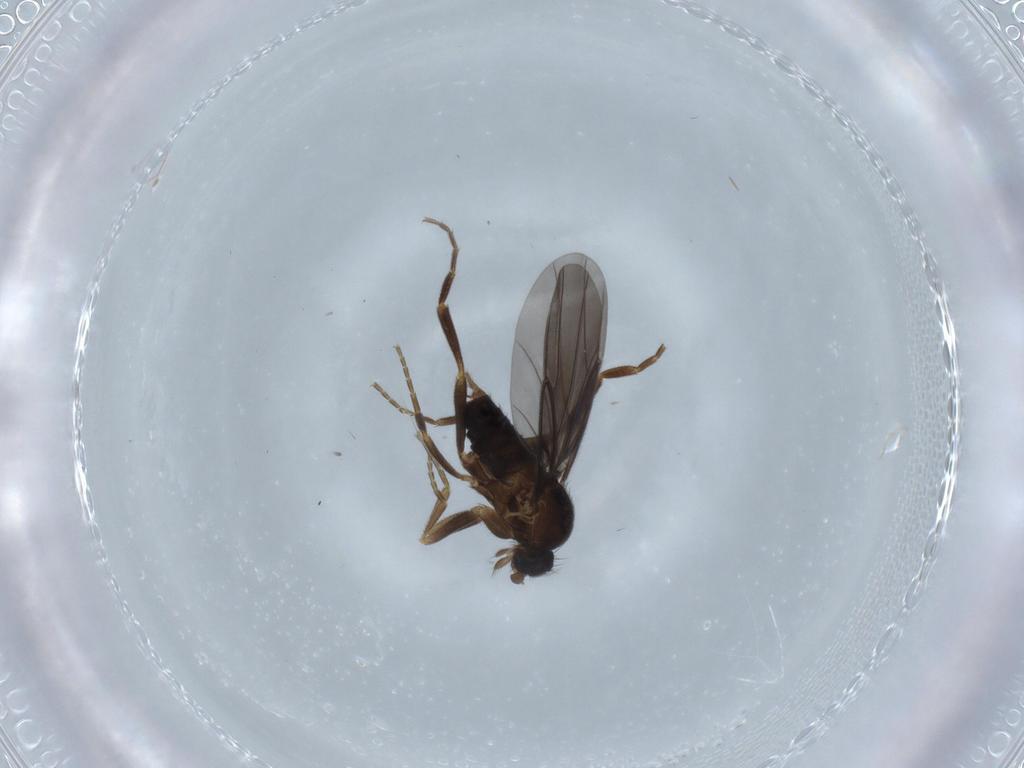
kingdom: Animalia
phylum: Arthropoda
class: Insecta
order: Diptera
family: Phoridae
